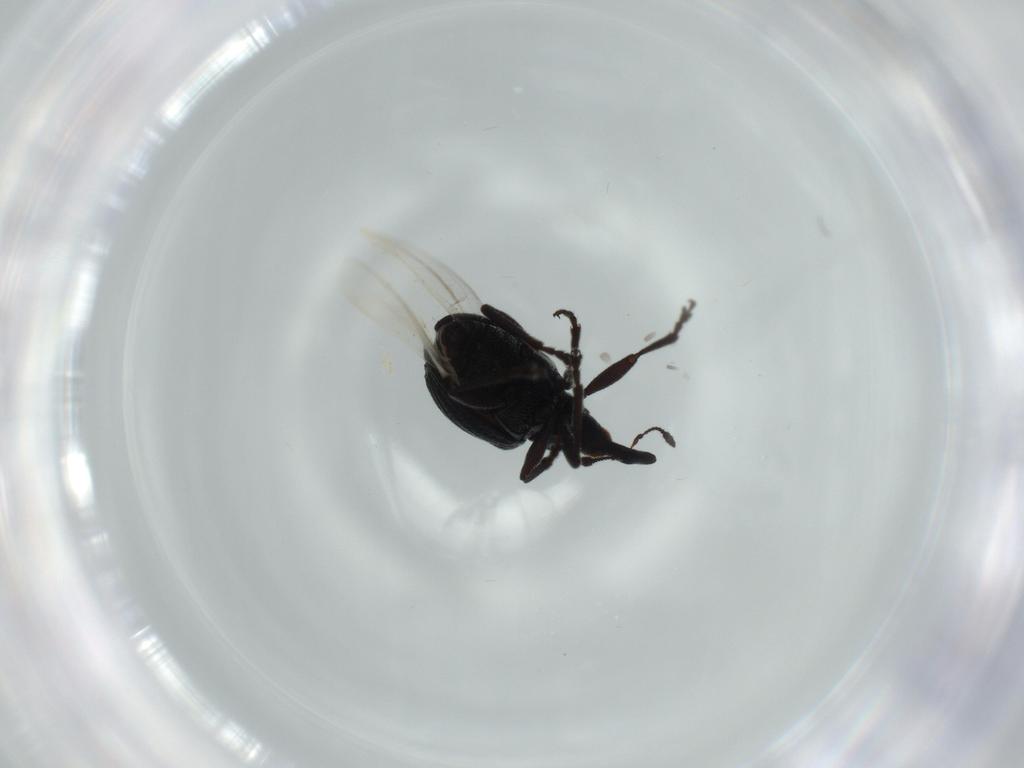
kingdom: Animalia
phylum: Arthropoda
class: Insecta
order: Coleoptera
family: Brentidae
